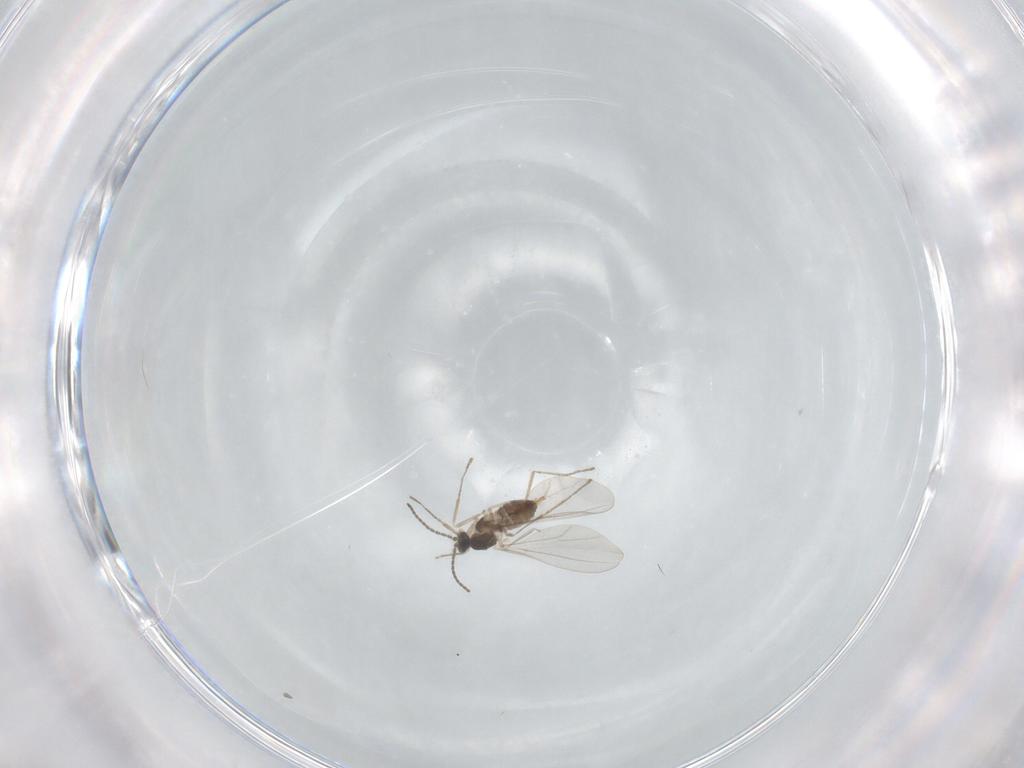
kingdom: Animalia
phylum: Arthropoda
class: Insecta
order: Diptera
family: Cecidomyiidae
